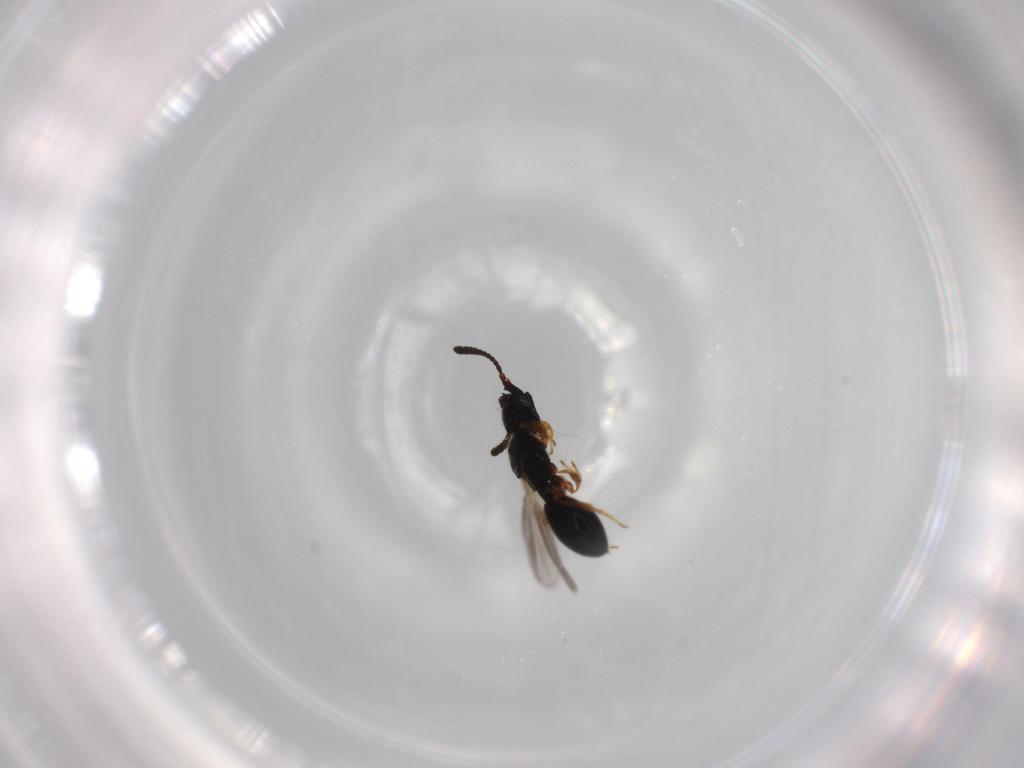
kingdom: Animalia
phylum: Arthropoda
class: Insecta
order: Hymenoptera
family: Diapriidae
